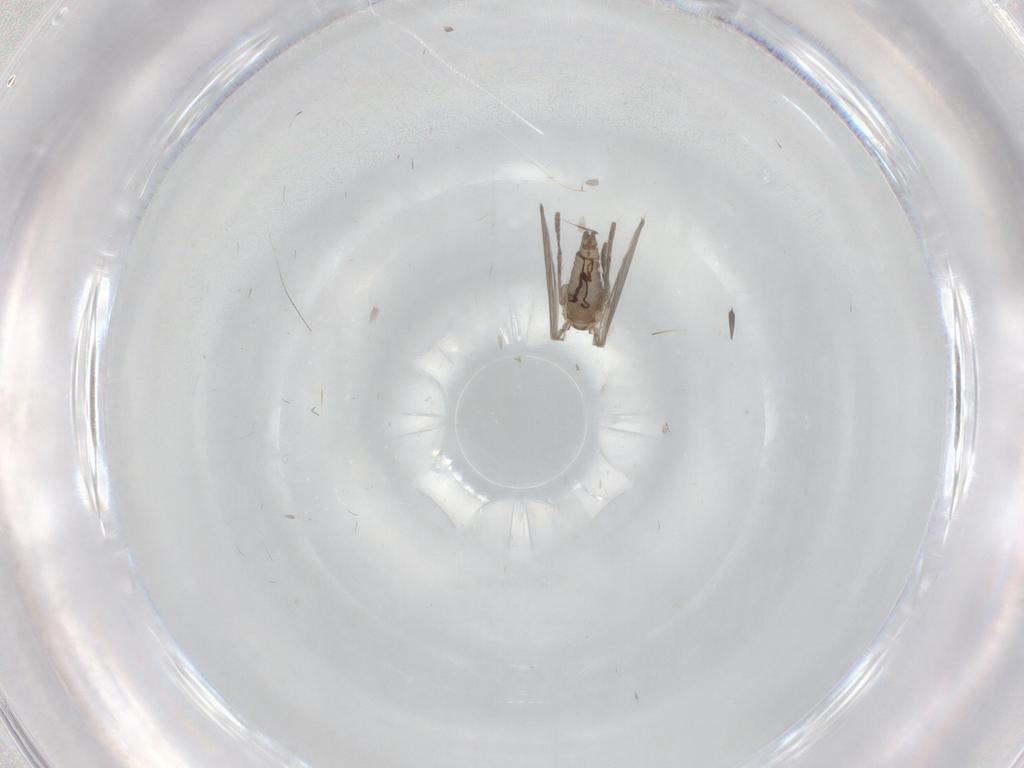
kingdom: Animalia
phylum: Arthropoda
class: Insecta
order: Diptera
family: Psychodidae
